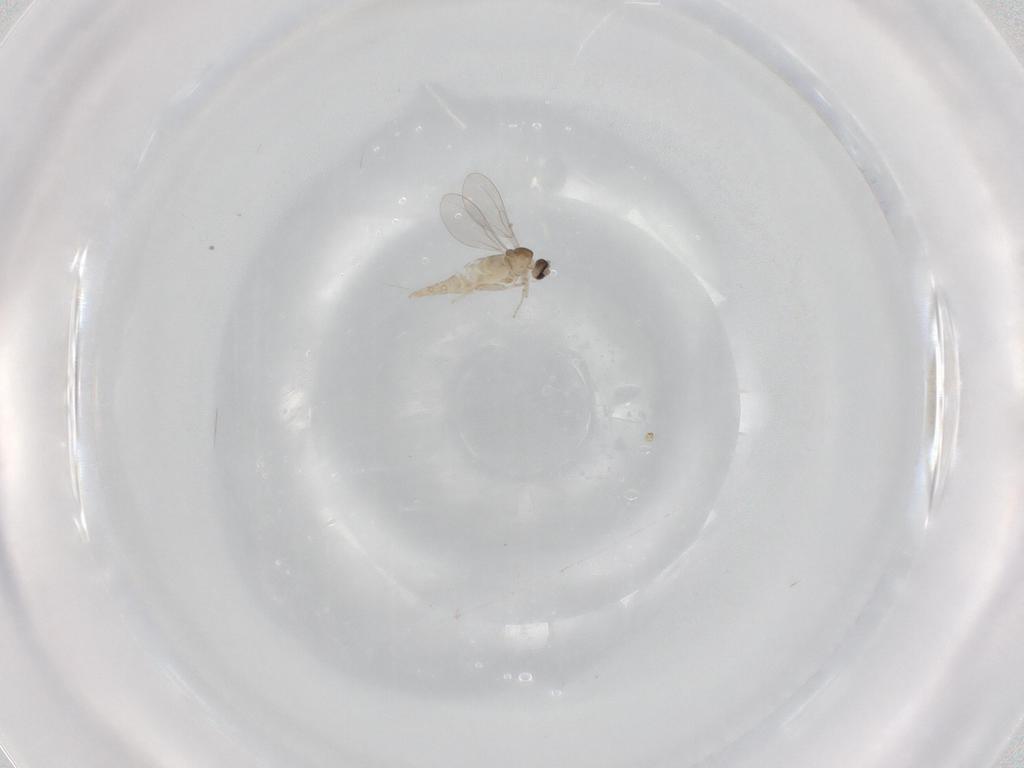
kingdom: Animalia
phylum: Arthropoda
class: Insecta
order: Diptera
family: Cecidomyiidae
